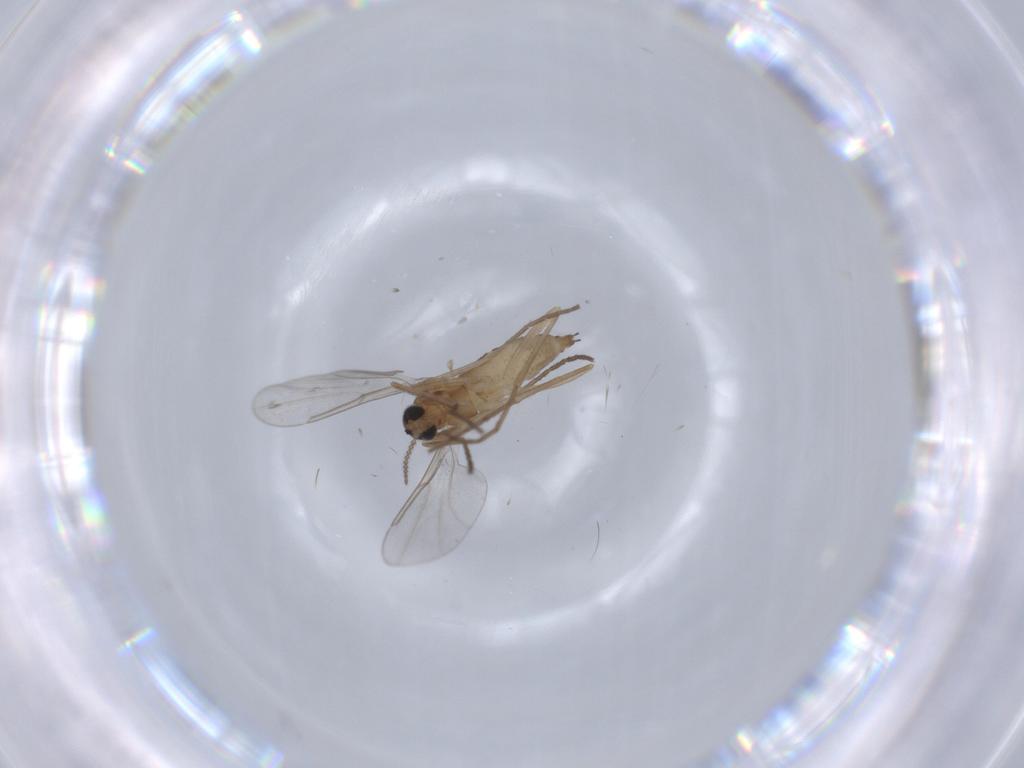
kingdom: Animalia
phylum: Arthropoda
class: Insecta
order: Diptera
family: Cecidomyiidae
